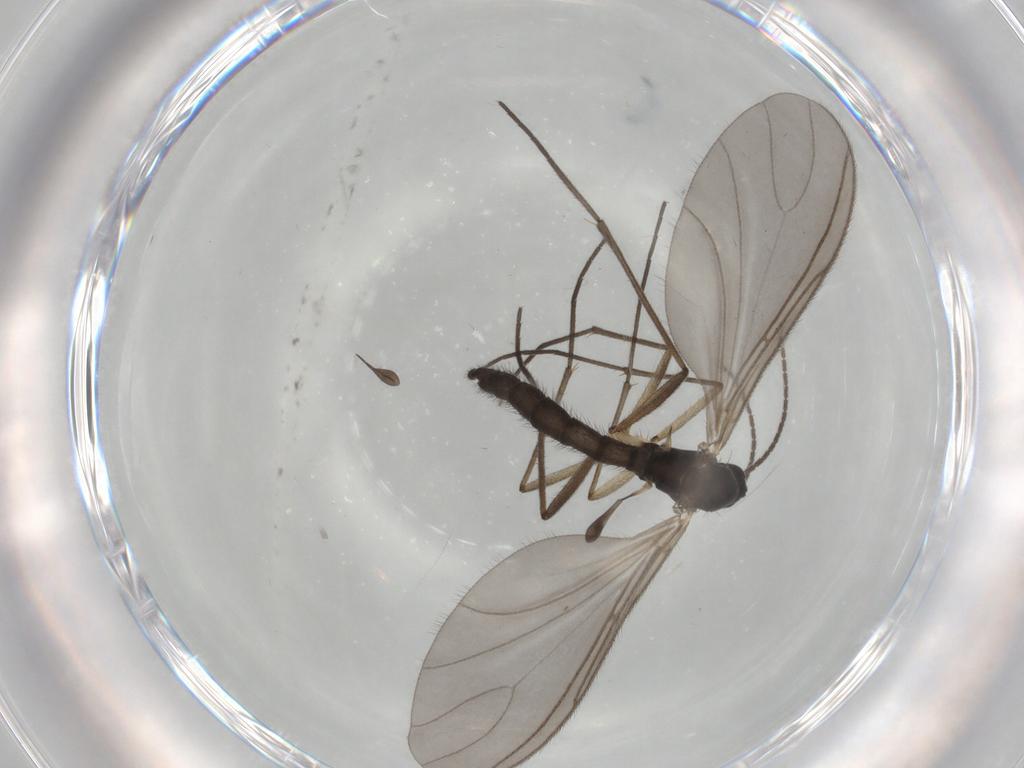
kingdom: Animalia
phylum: Arthropoda
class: Insecta
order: Diptera
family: Sciaridae
